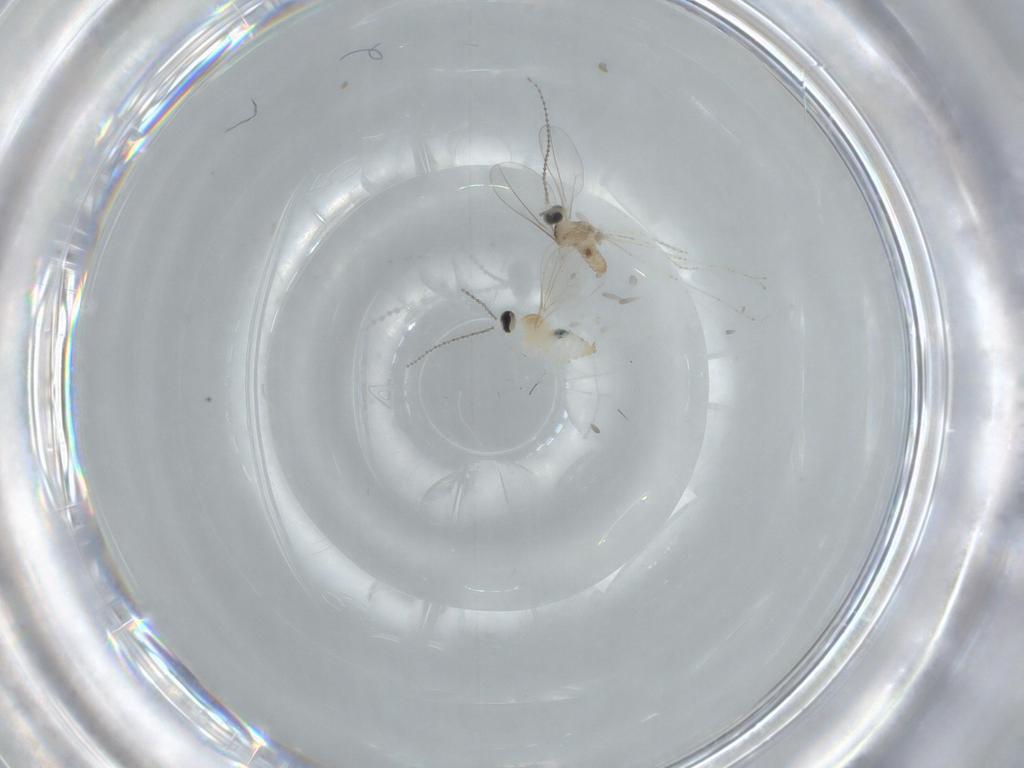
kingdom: Animalia
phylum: Arthropoda
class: Insecta
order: Diptera
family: Cecidomyiidae
